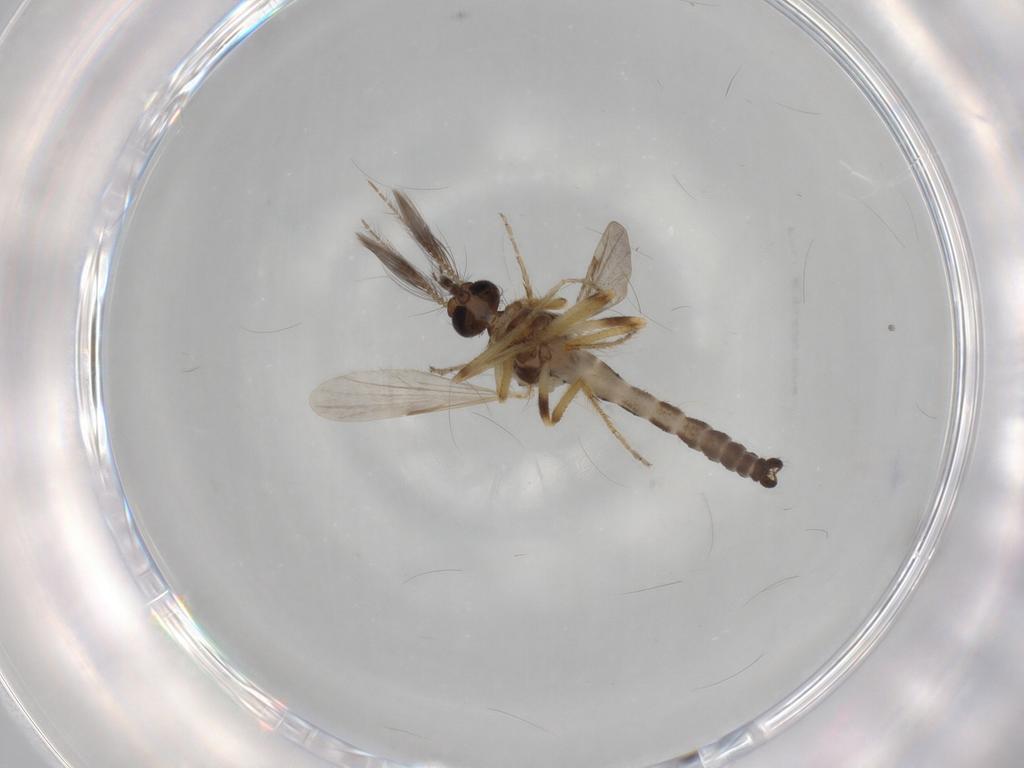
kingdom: Animalia
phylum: Arthropoda
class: Insecta
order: Diptera
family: Ceratopogonidae
